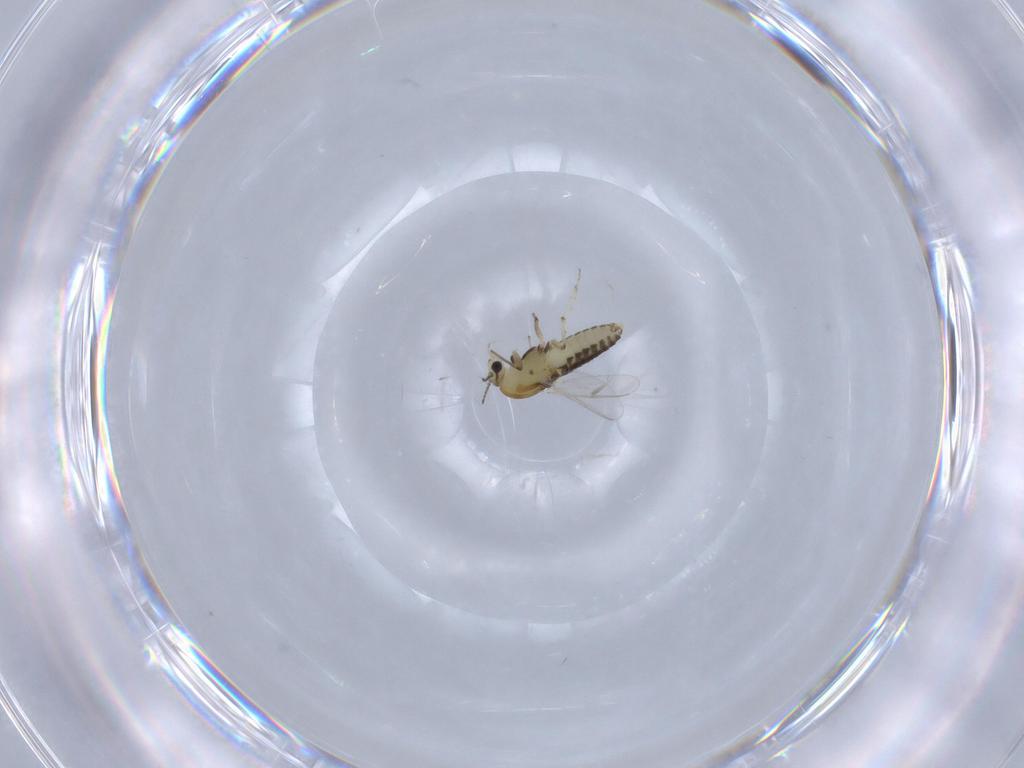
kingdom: Animalia
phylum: Arthropoda
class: Insecta
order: Diptera
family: Chironomidae
